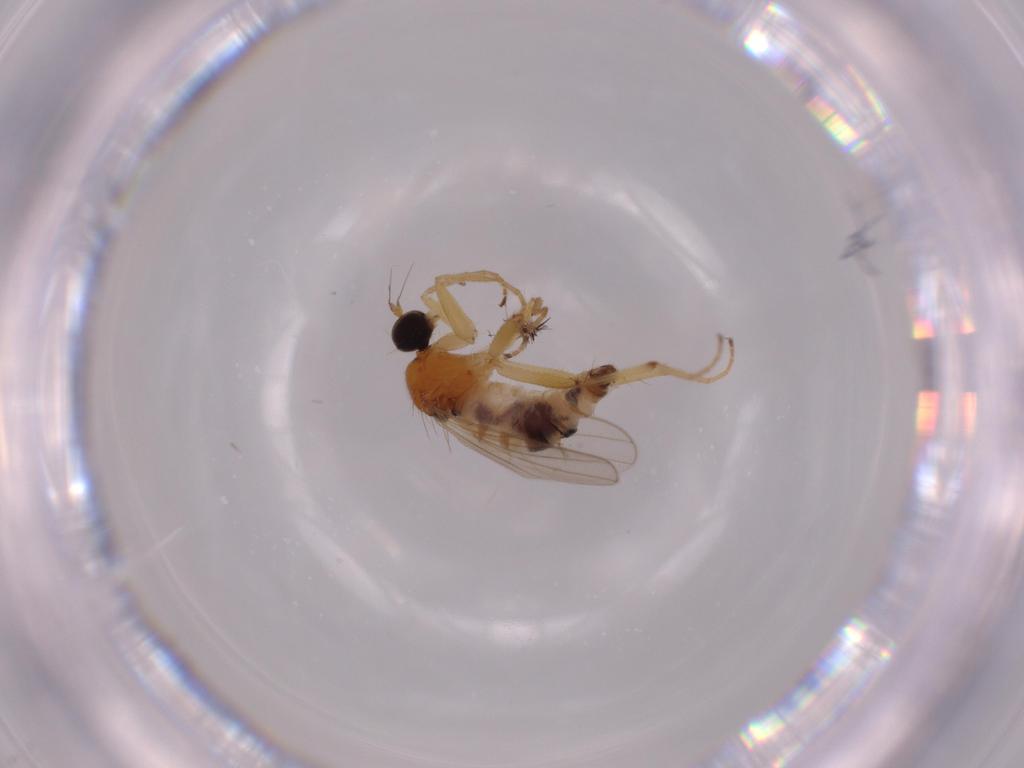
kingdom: Animalia
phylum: Arthropoda
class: Insecta
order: Diptera
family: Hybotidae
